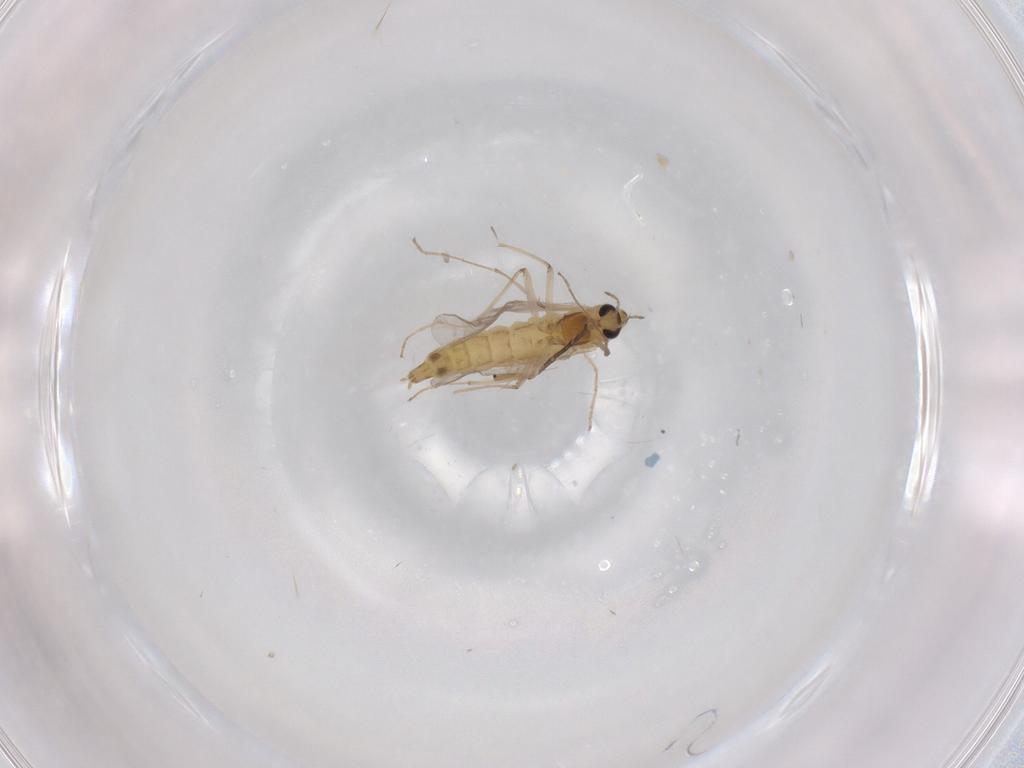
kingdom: Animalia
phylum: Arthropoda
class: Insecta
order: Diptera
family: Sciaridae
